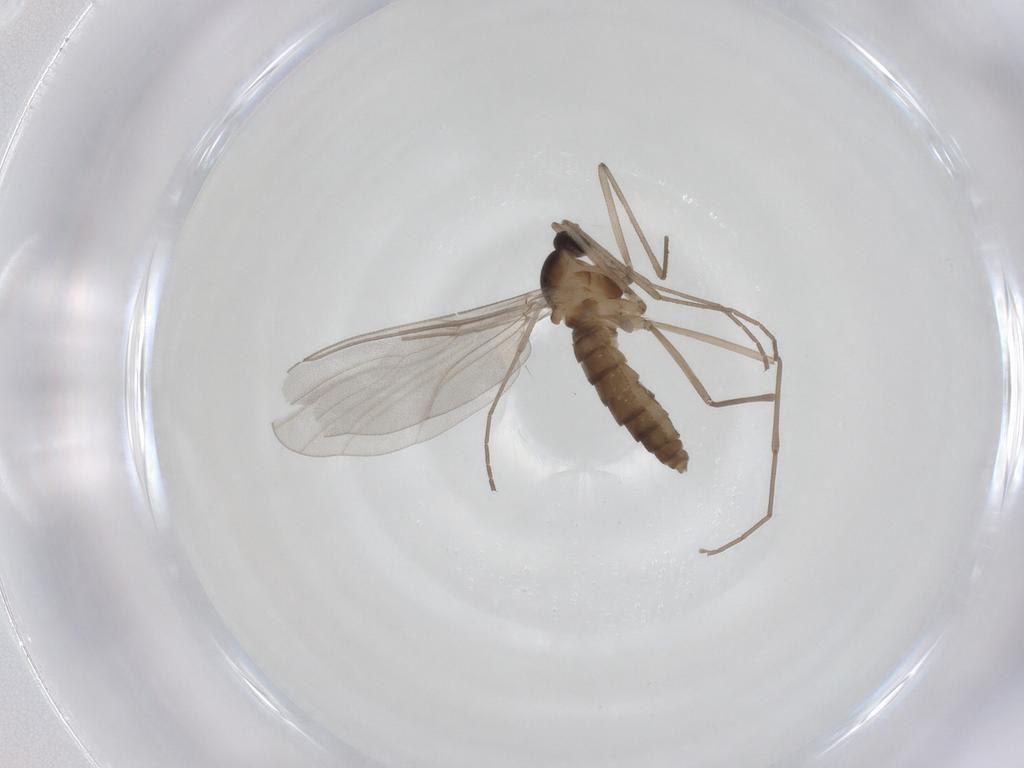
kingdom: Animalia
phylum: Arthropoda
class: Insecta
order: Diptera
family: Cecidomyiidae
